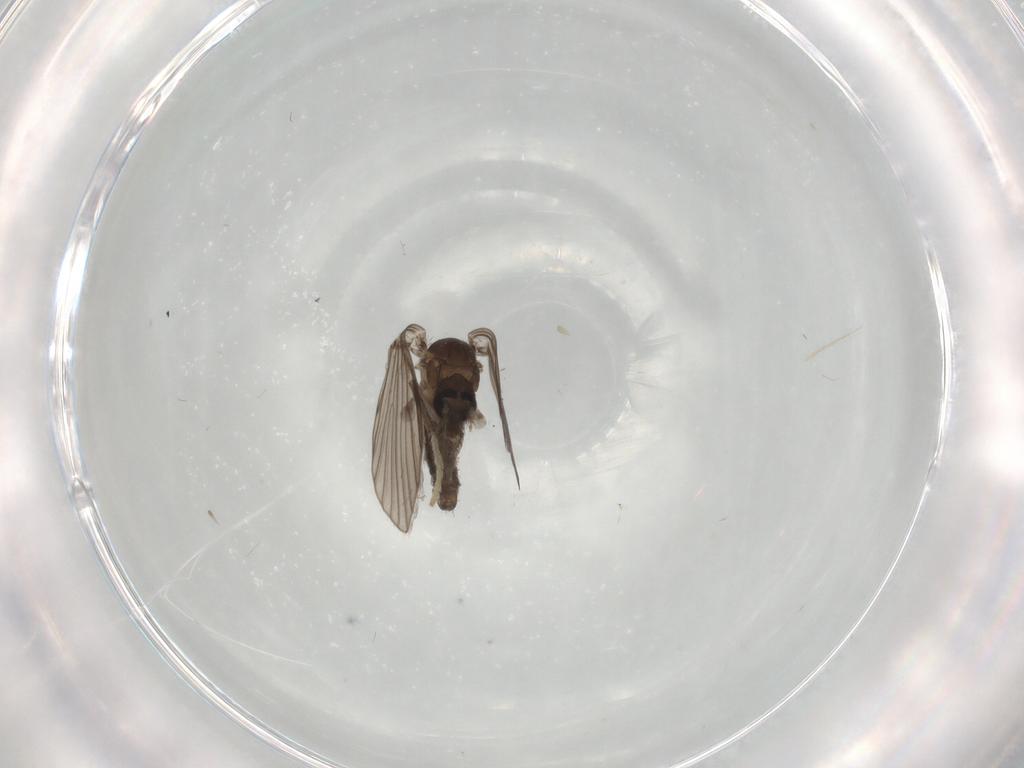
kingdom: Animalia
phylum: Arthropoda
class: Insecta
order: Diptera
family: Psychodidae
